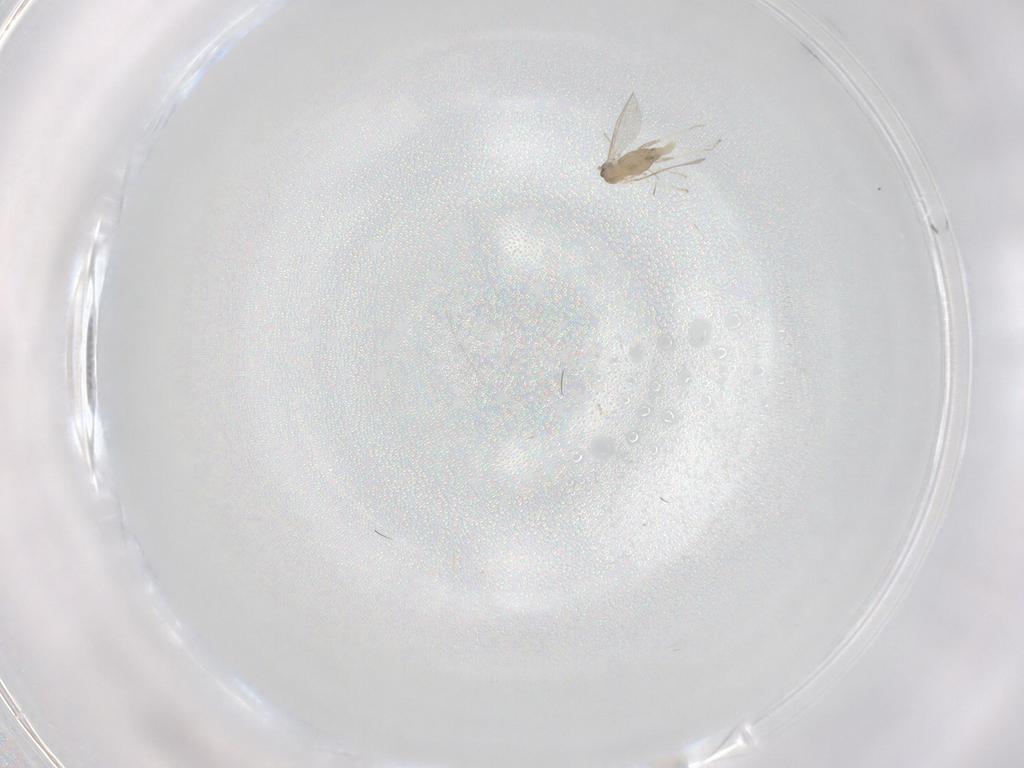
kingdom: Animalia
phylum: Arthropoda
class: Insecta
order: Diptera
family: Cecidomyiidae
